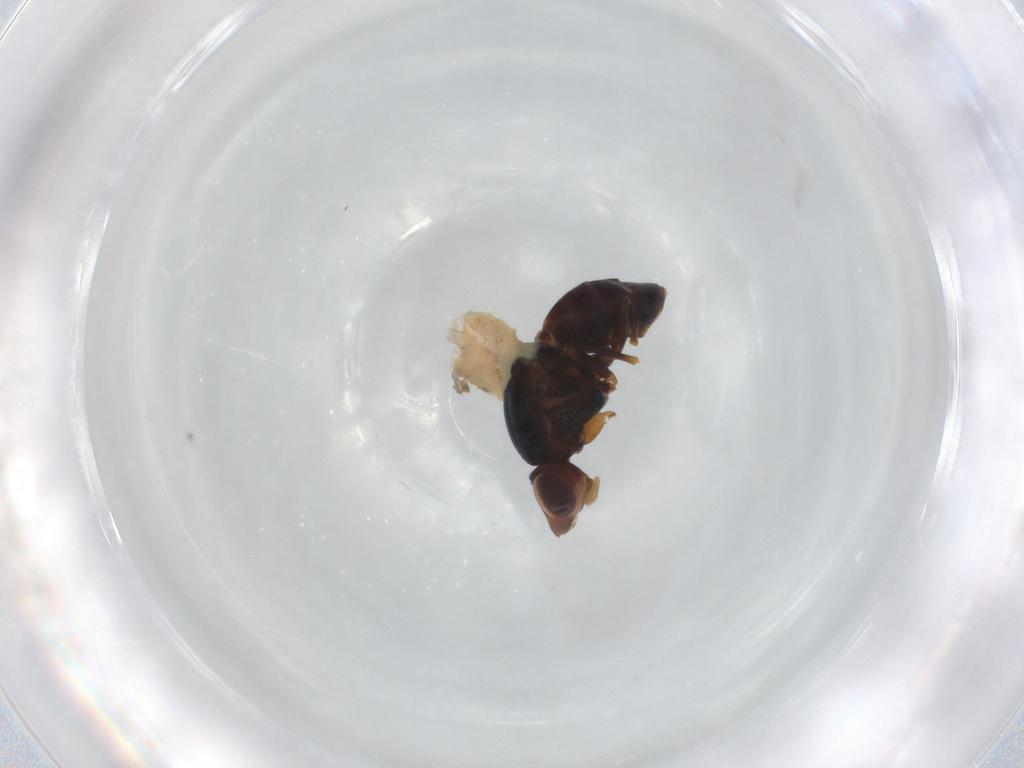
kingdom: Animalia
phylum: Arthropoda
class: Insecta
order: Diptera
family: Chloropidae
